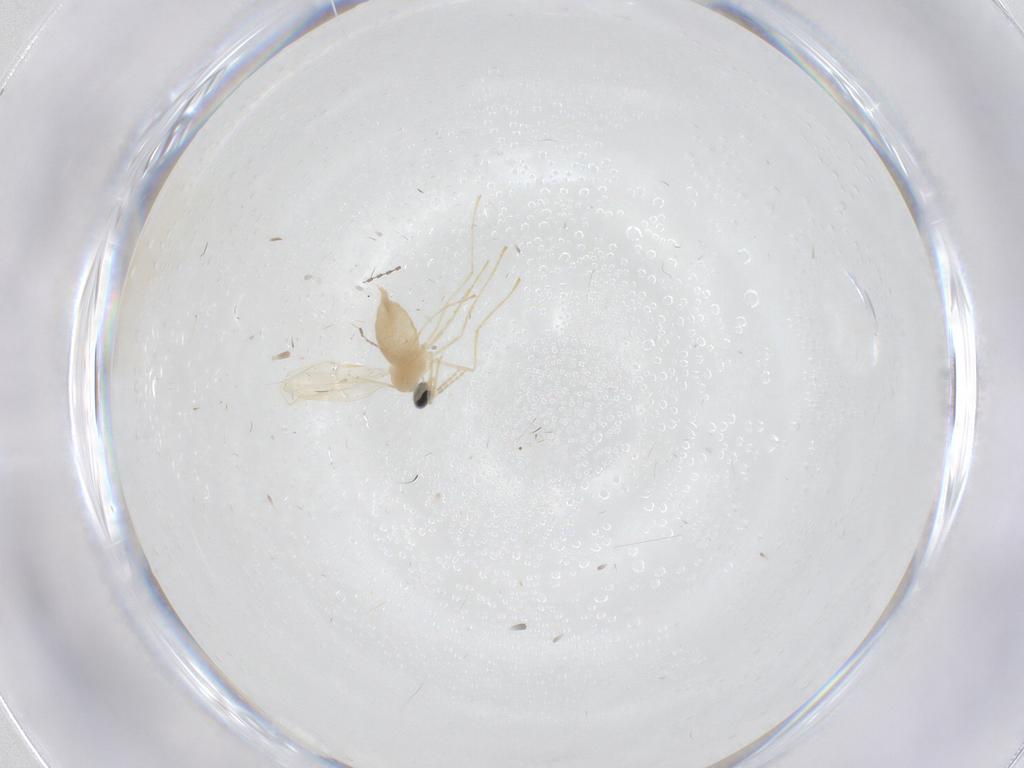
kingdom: Animalia
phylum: Arthropoda
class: Insecta
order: Diptera
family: Cecidomyiidae
